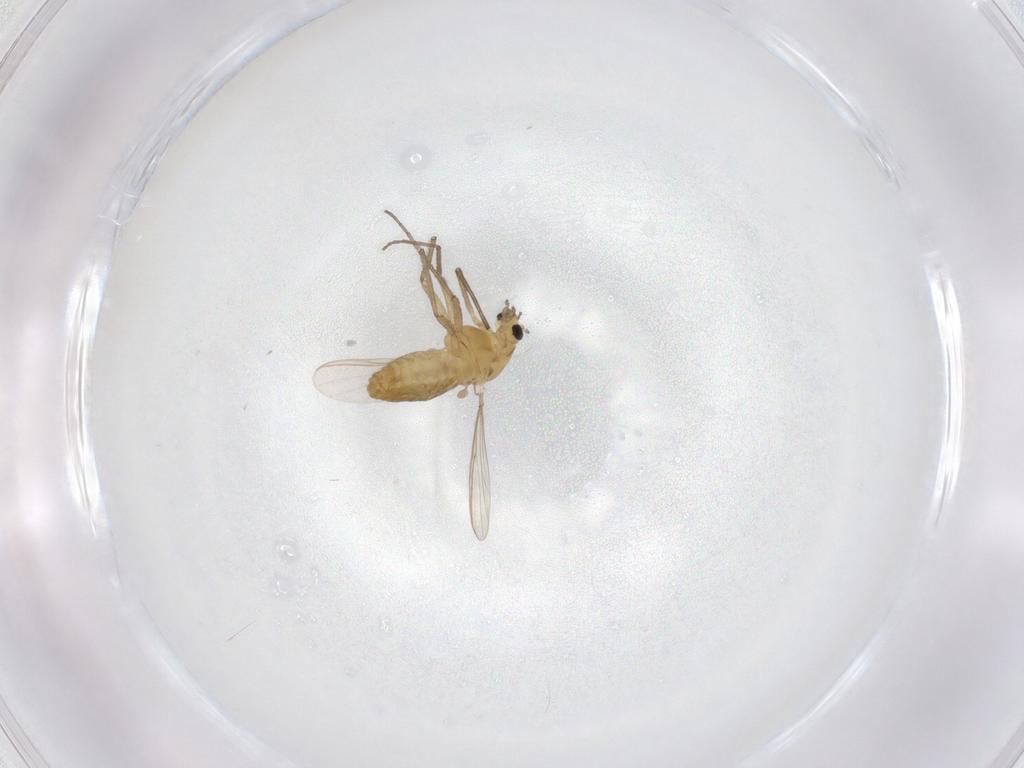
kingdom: Animalia
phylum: Arthropoda
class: Insecta
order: Diptera
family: Chironomidae
